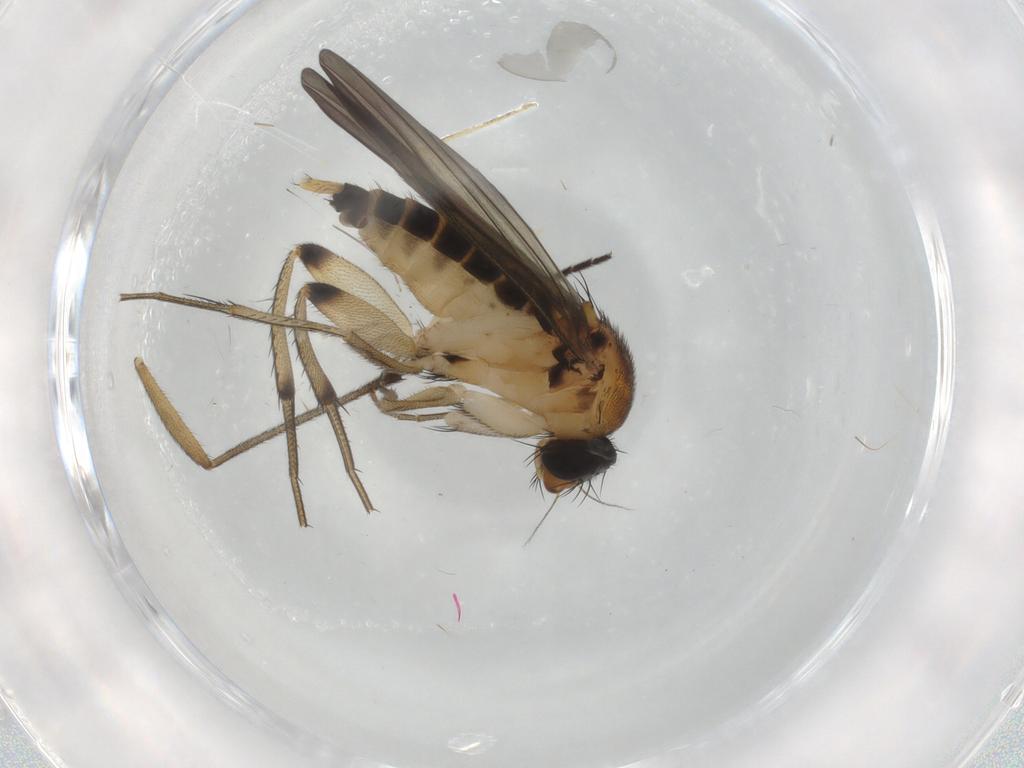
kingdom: Animalia
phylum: Arthropoda
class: Insecta
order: Diptera
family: Sciaridae
